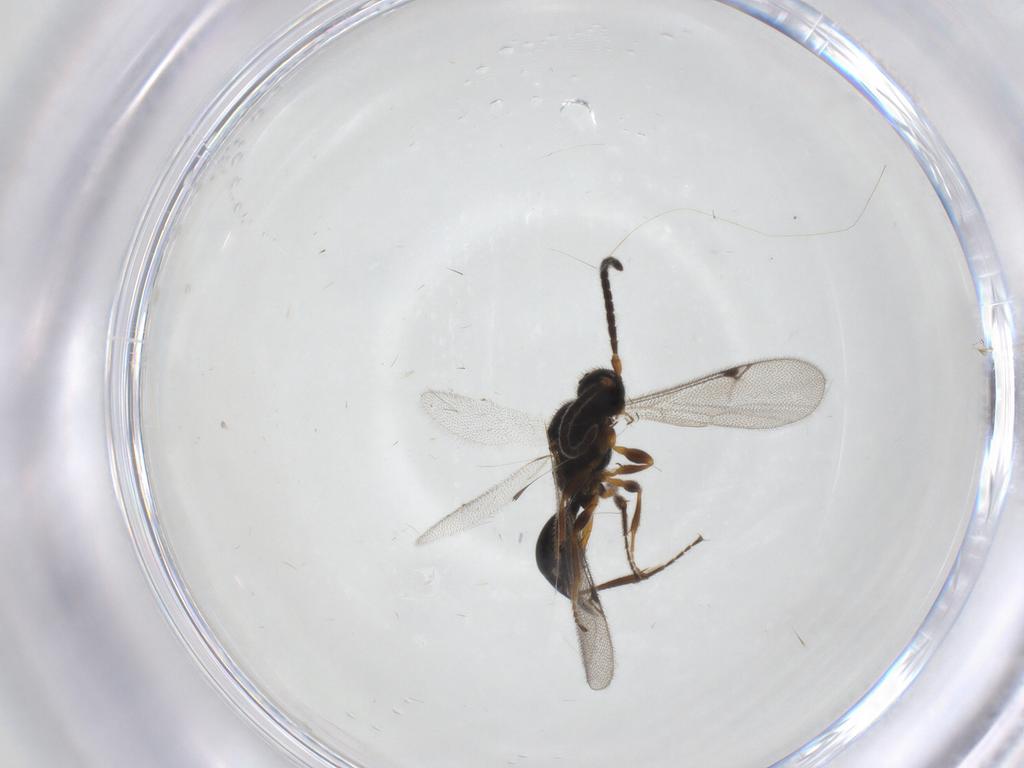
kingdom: Animalia
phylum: Arthropoda
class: Insecta
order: Hymenoptera
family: Proctotrupidae
